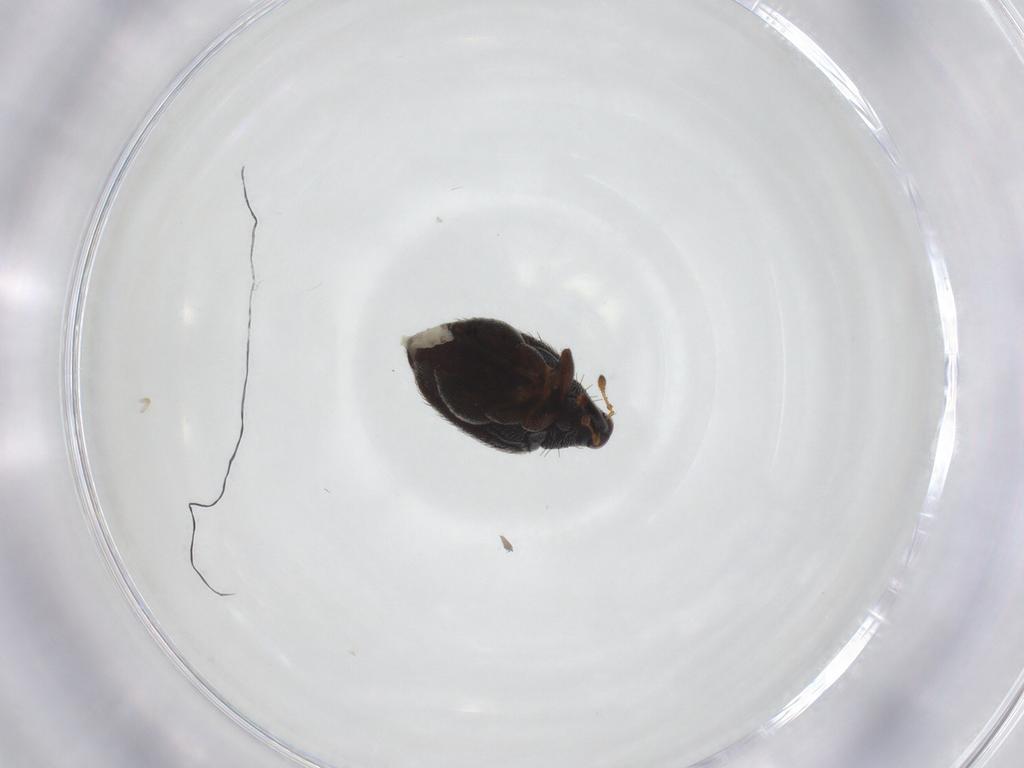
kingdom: Animalia
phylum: Arthropoda
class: Insecta
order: Coleoptera
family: Curculionidae
